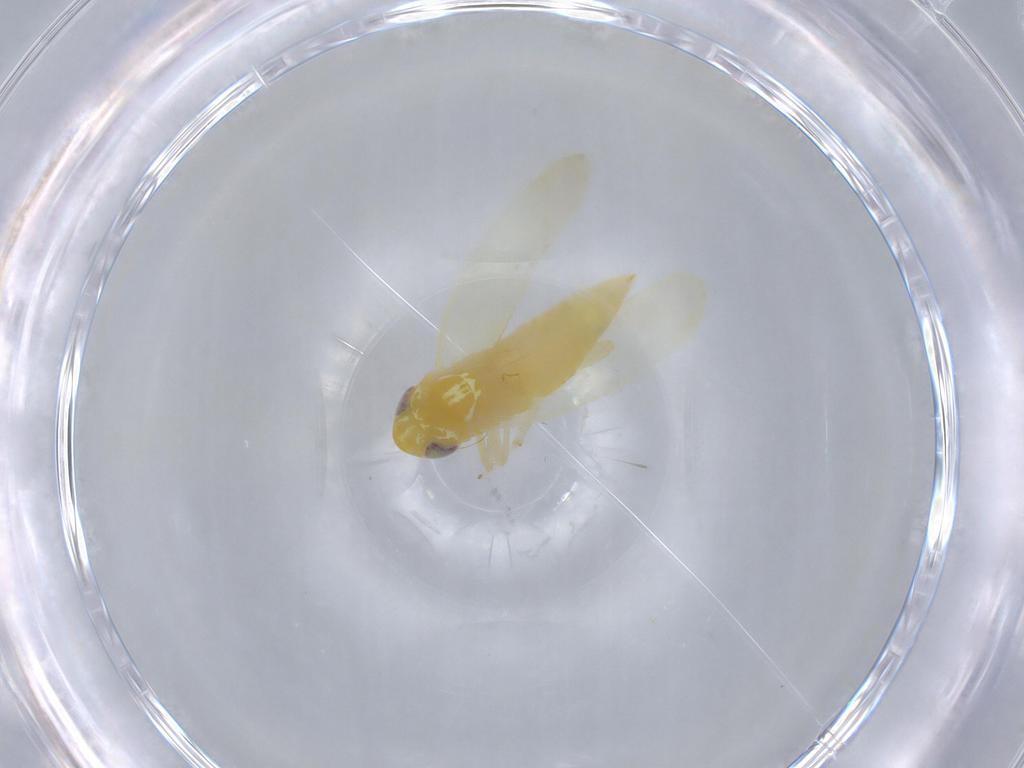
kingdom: Animalia
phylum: Arthropoda
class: Insecta
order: Hemiptera
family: Cicadellidae
